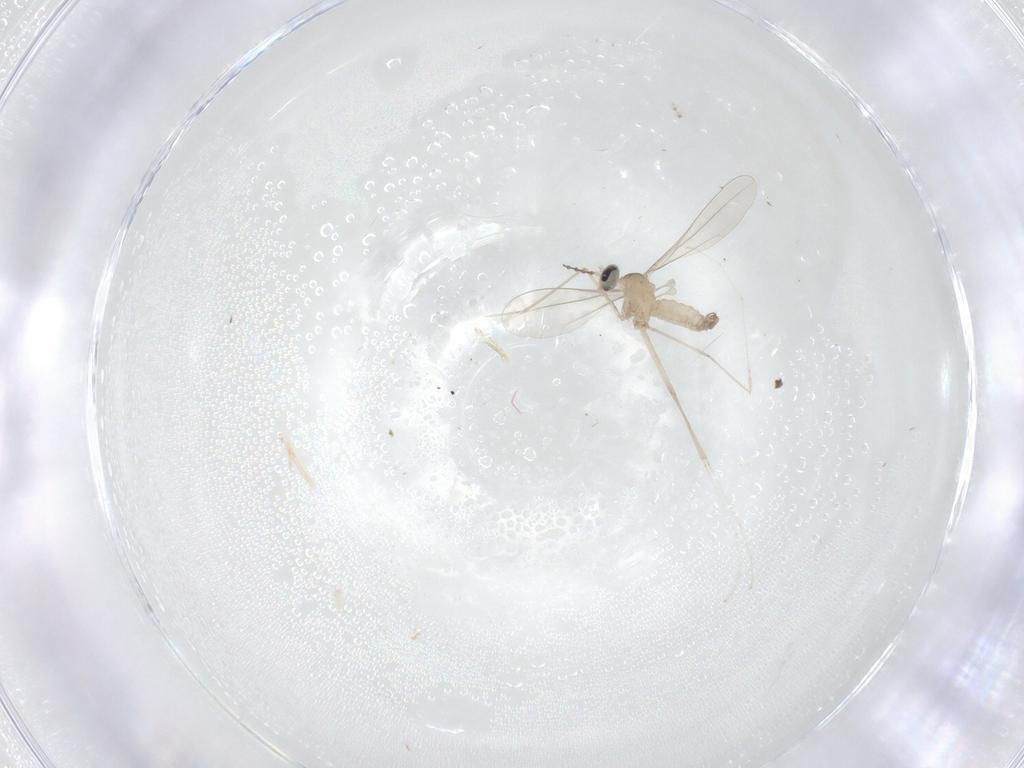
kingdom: Animalia
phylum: Arthropoda
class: Insecta
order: Diptera
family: Cecidomyiidae
